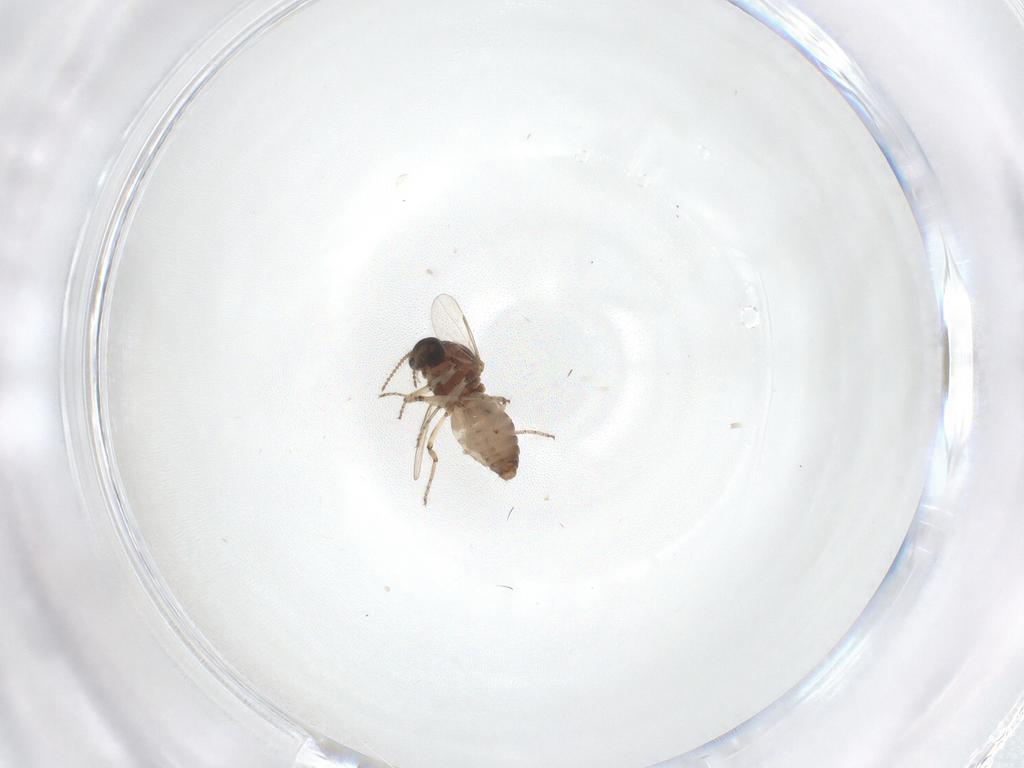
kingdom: Animalia
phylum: Arthropoda
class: Insecta
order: Diptera
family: Ceratopogonidae
